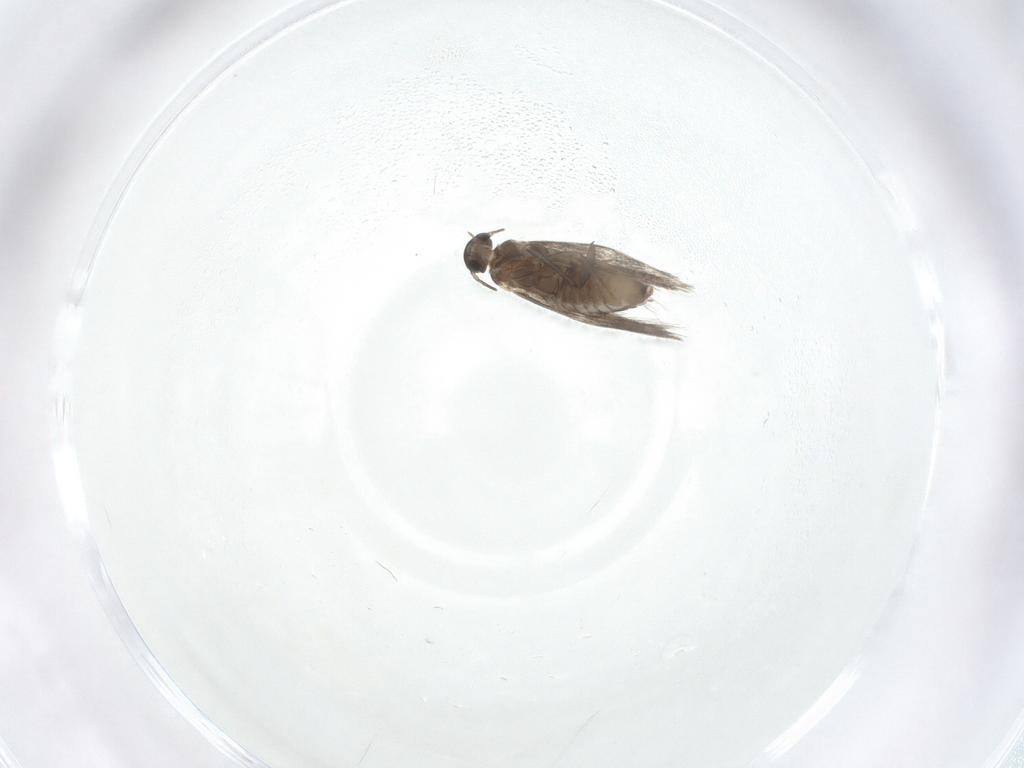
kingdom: Animalia
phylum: Arthropoda
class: Insecta
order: Lepidoptera
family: Heliozelidae
